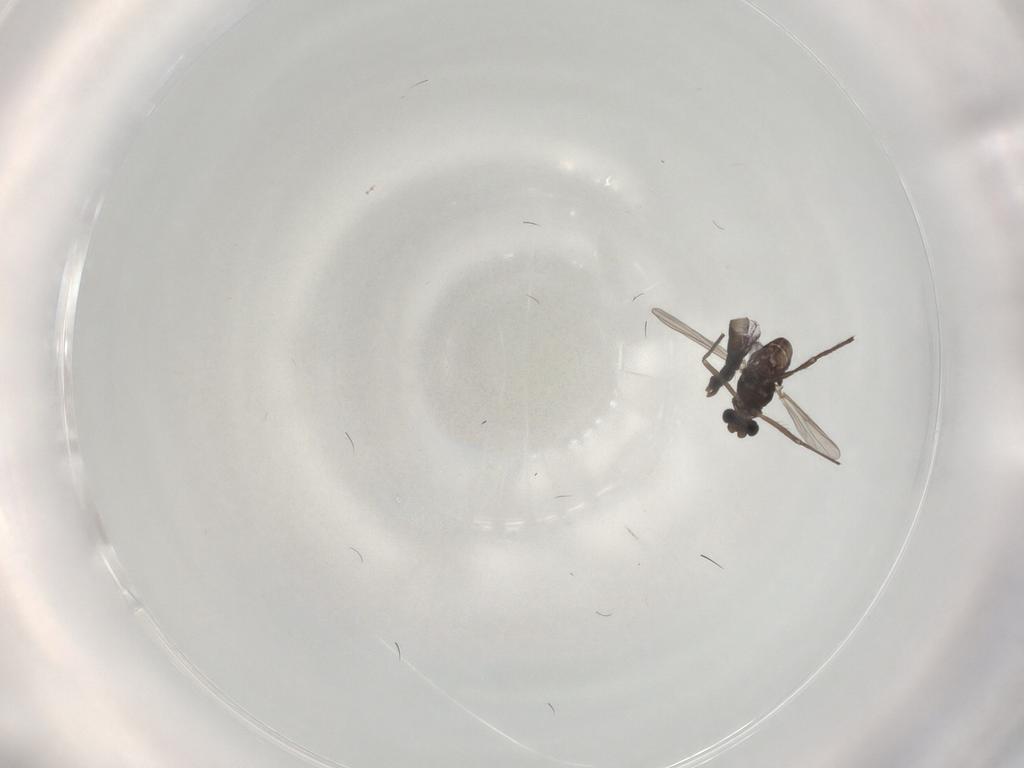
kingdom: Animalia
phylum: Arthropoda
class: Insecta
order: Diptera
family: Chironomidae
